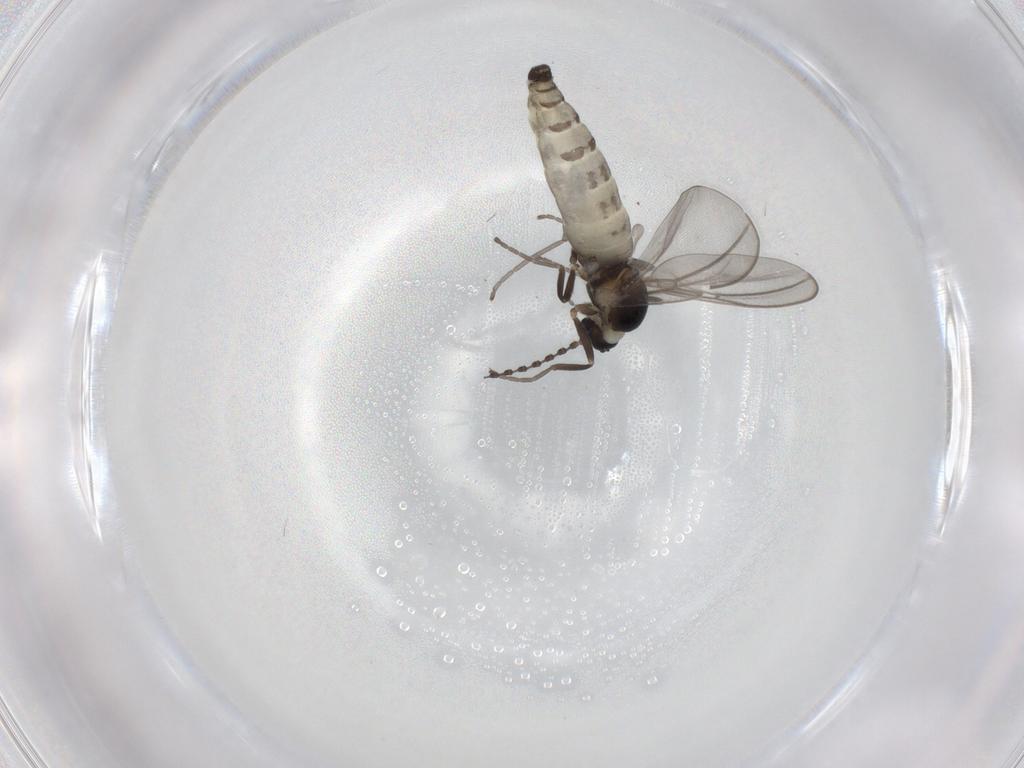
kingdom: Animalia
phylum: Arthropoda
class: Insecta
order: Diptera
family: Cecidomyiidae
